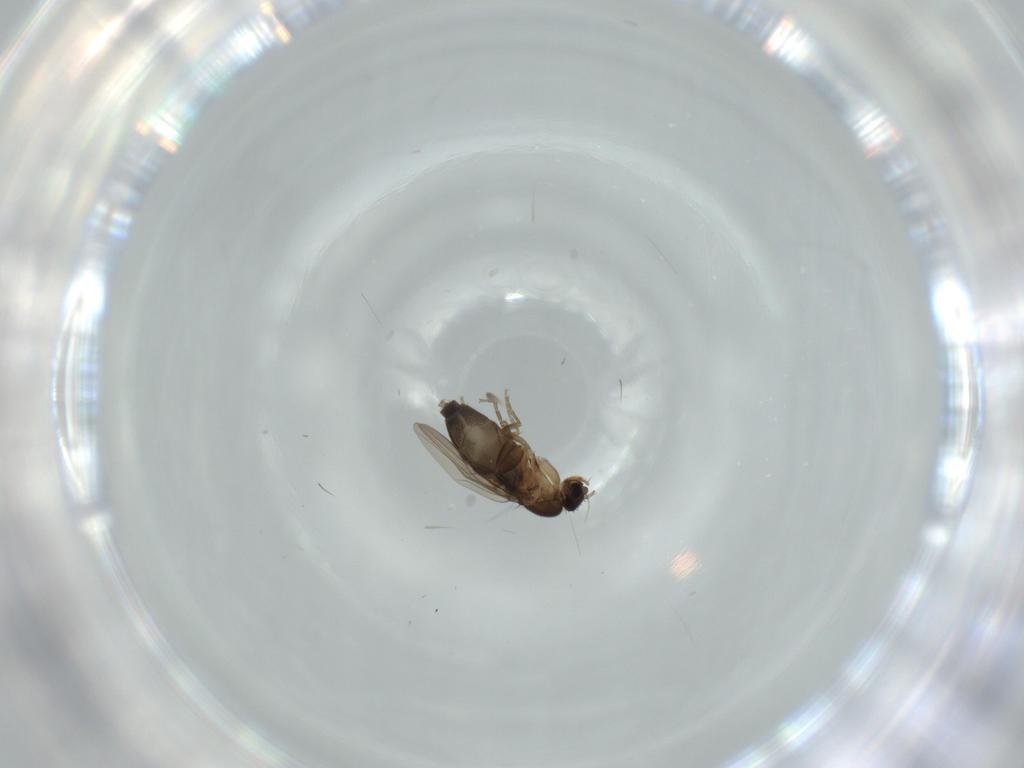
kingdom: Animalia
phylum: Arthropoda
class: Insecta
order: Diptera
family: Phoridae
